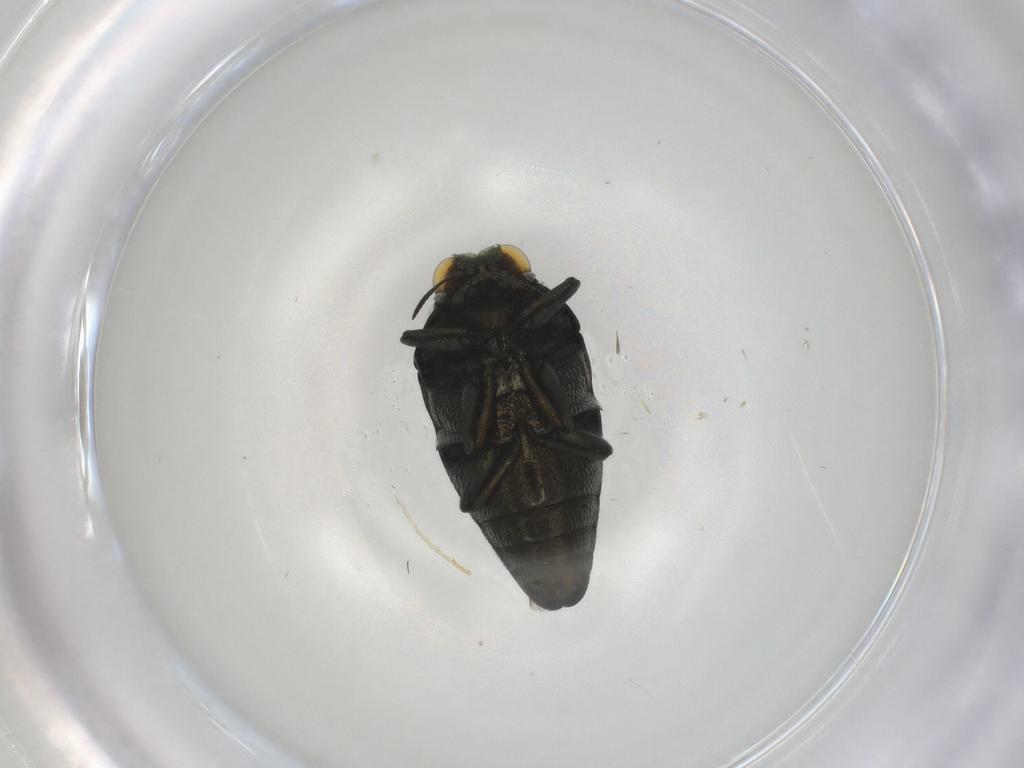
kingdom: Animalia
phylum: Arthropoda
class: Insecta
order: Coleoptera
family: Buprestidae
